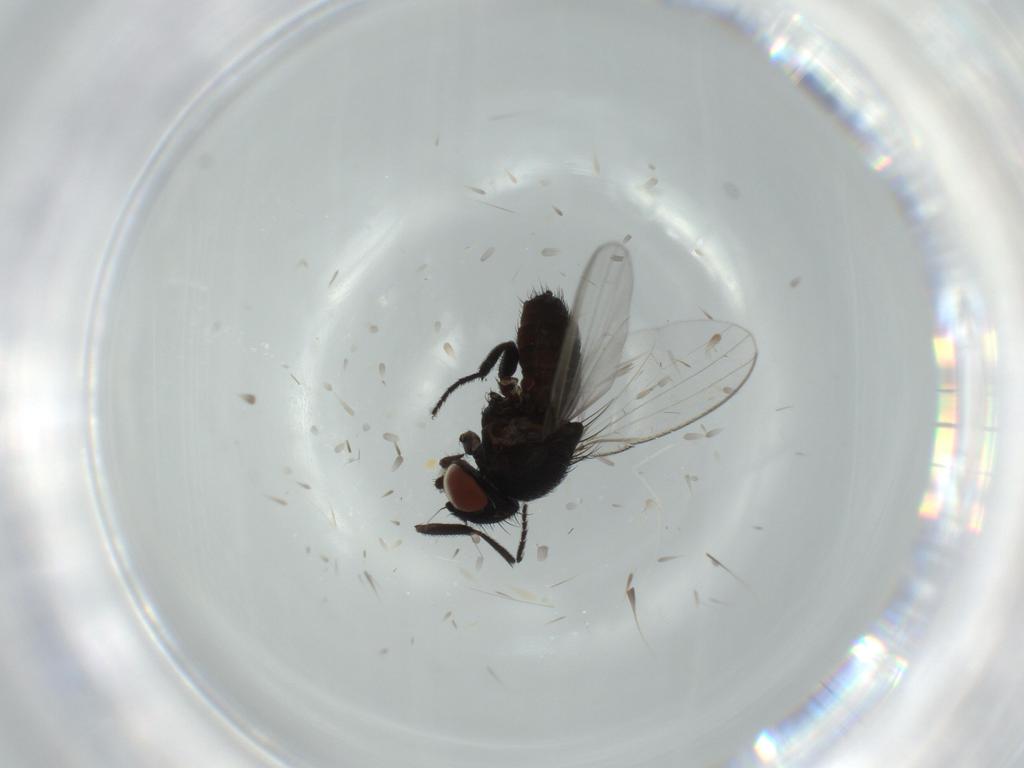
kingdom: Animalia
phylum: Arthropoda
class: Insecta
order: Diptera
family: Milichiidae
